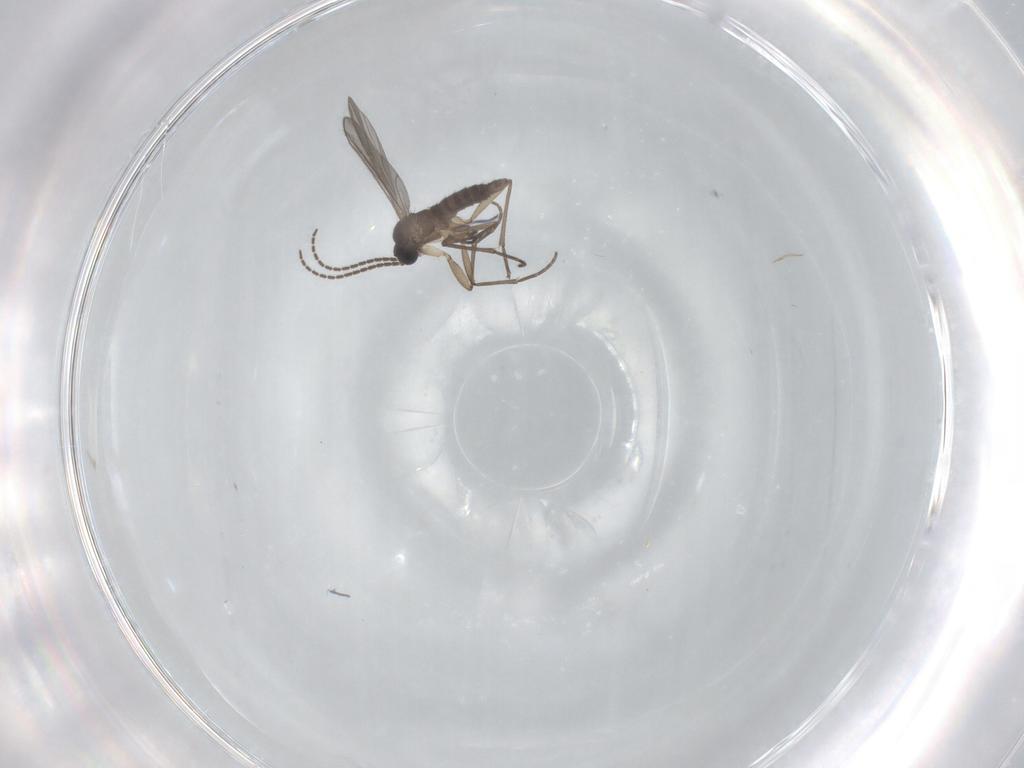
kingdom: Animalia
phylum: Arthropoda
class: Insecta
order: Diptera
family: Sciaridae
